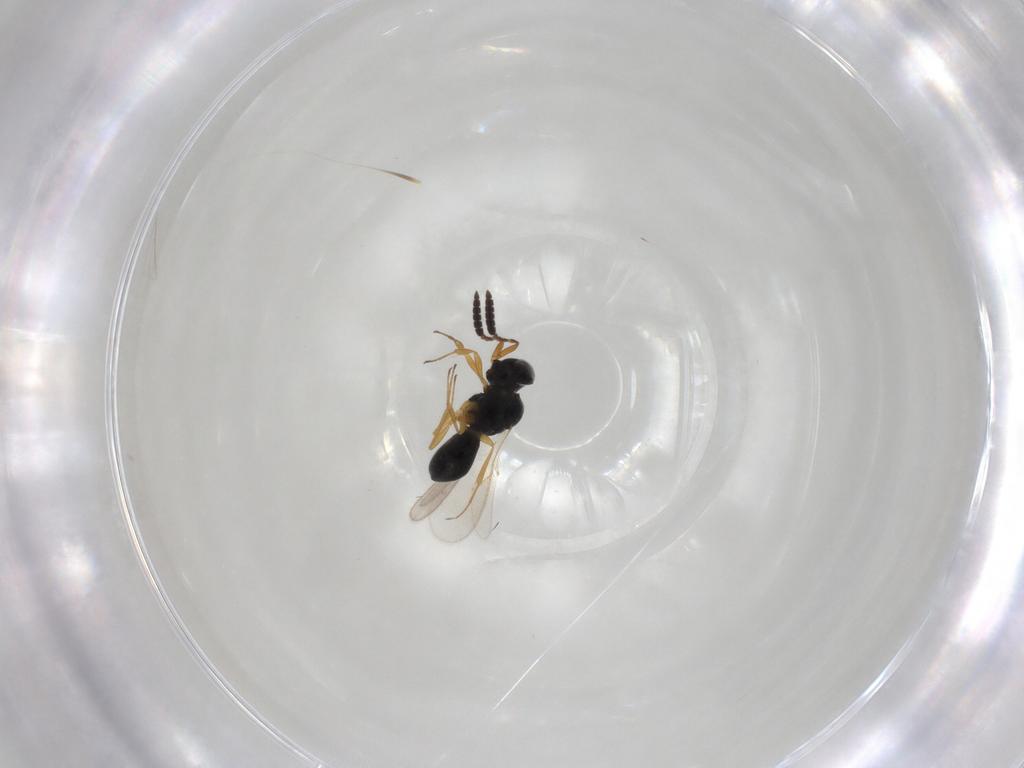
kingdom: Animalia
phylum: Arthropoda
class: Insecta
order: Hymenoptera
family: Scelionidae
